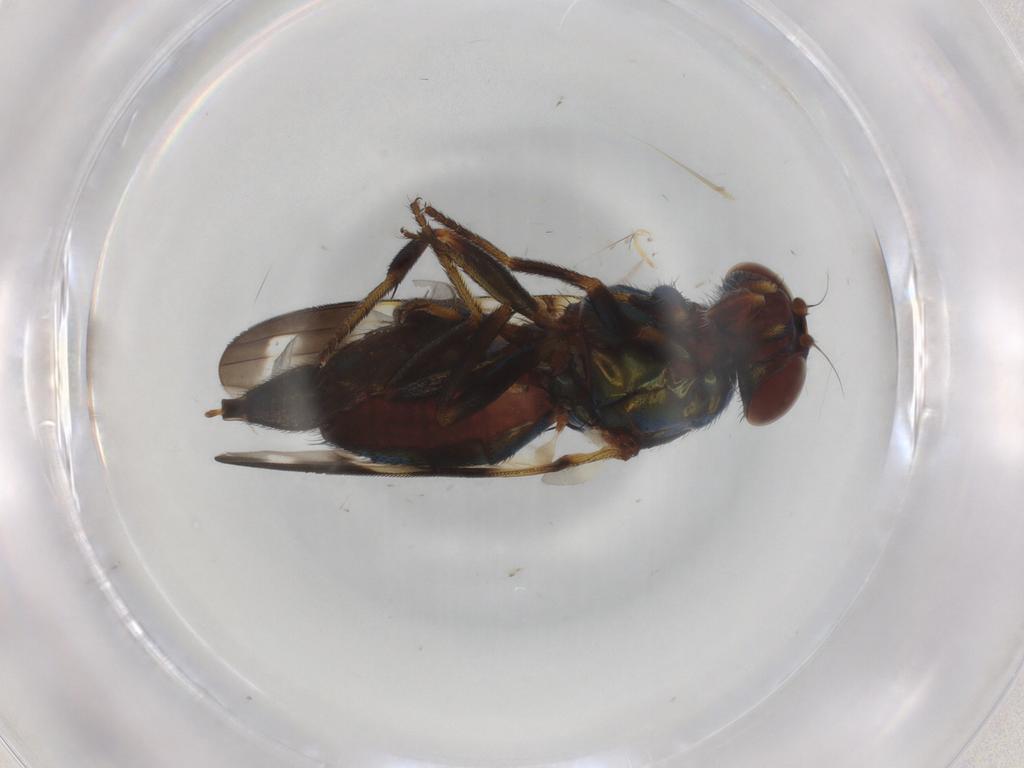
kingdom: Animalia
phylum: Arthropoda
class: Insecta
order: Diptera
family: Ulidiidae
